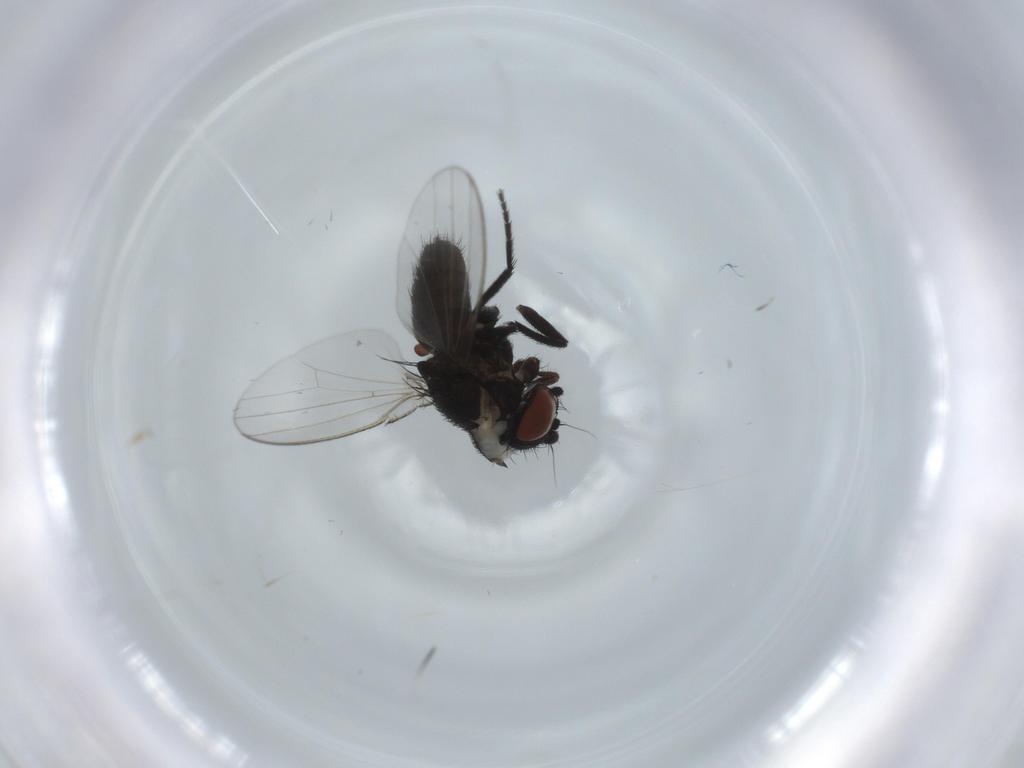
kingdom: Animalia
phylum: Arthropoda
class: Insecta
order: Diptera
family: Milichiidae
